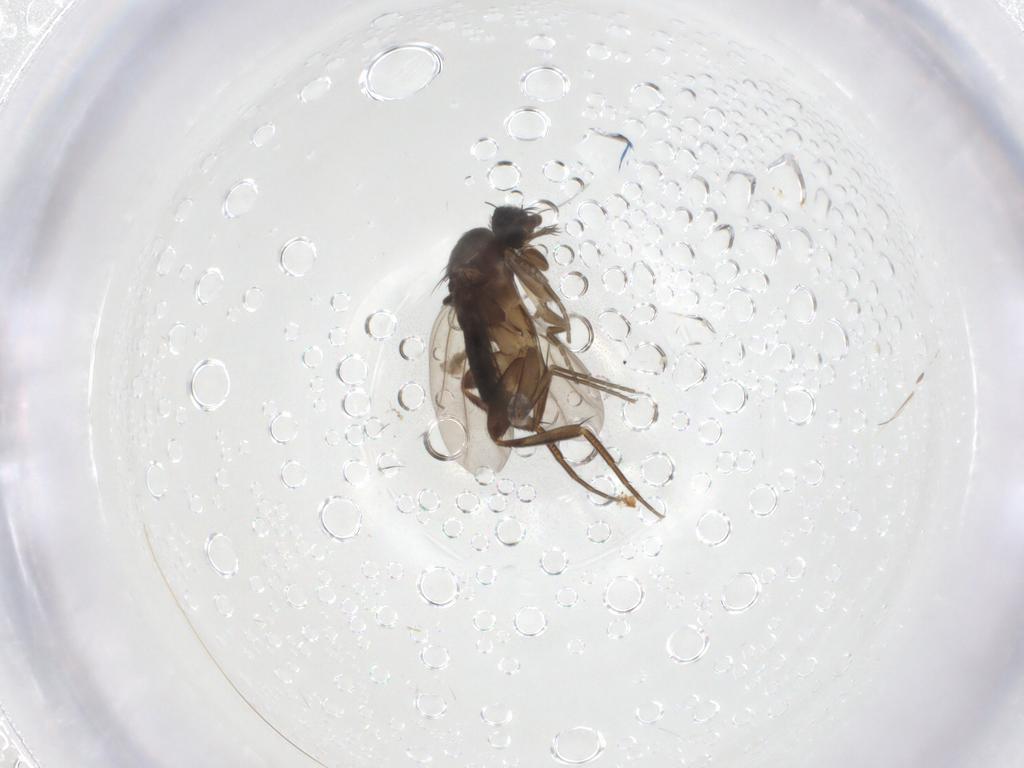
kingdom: Animalia
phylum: Arthropoda
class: Insecta
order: Diptera
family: Phoridae
